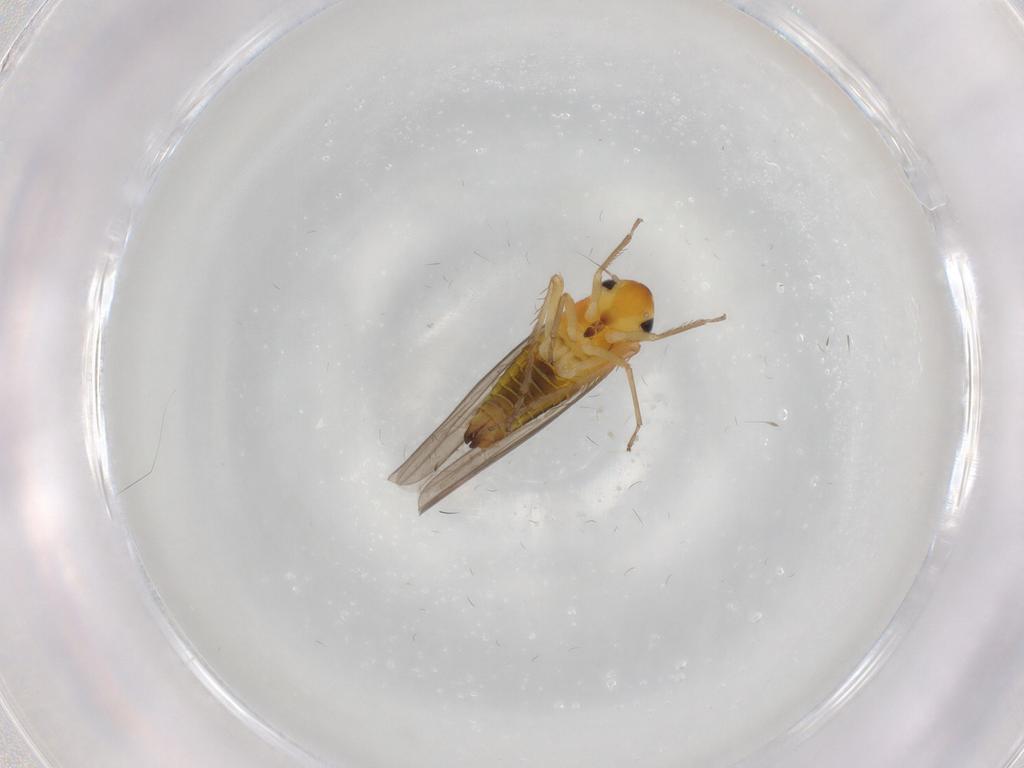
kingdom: Animalia
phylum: Arthropoda
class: Insecta
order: Hemiptera
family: Cicadellidae
